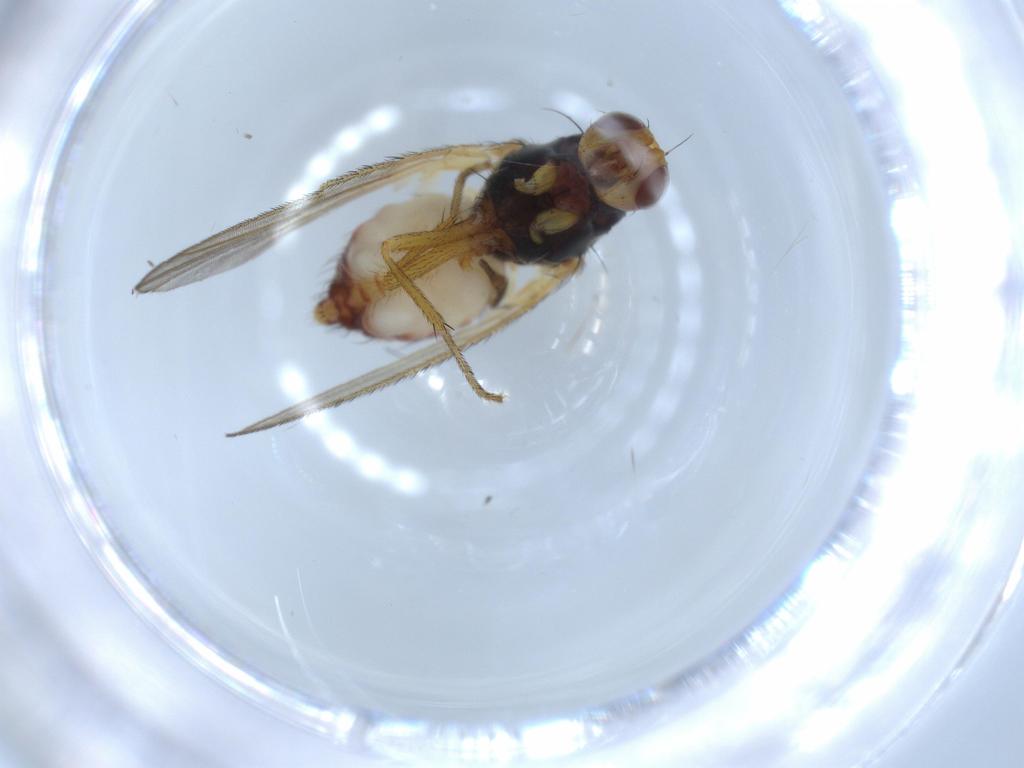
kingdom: Animalia
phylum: Arthropoda
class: Insecta
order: Diptera
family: Heleomyzidae
